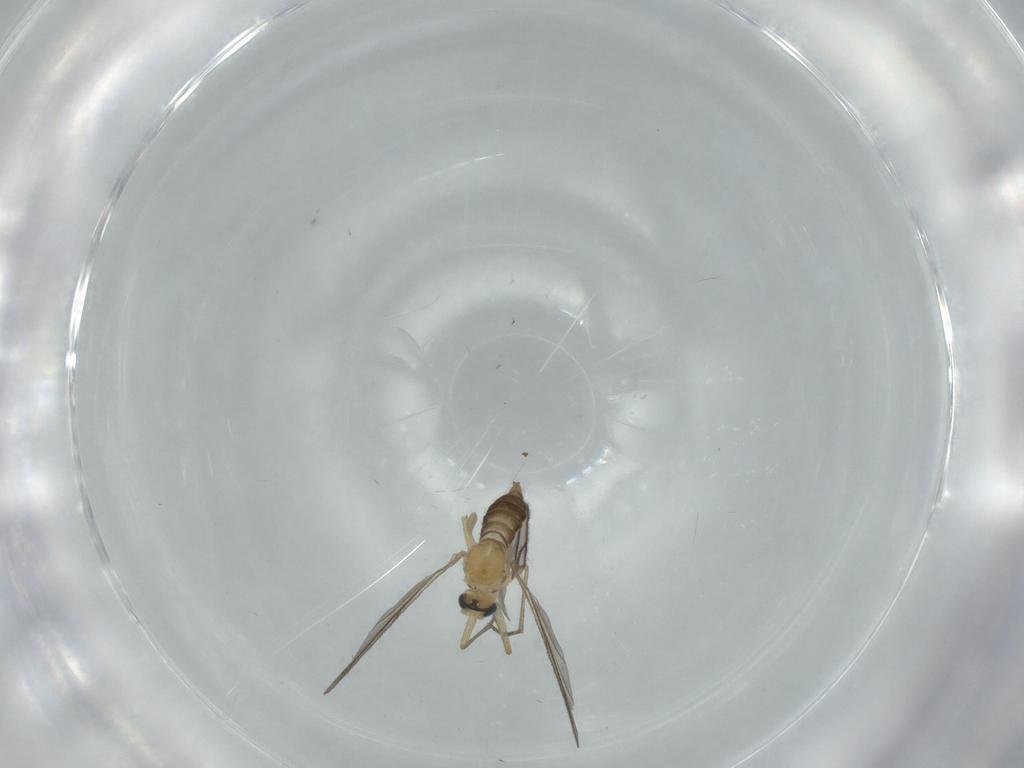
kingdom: Animalia
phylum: Arthropoda
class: Insecta
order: Diptera
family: Sciaridae
